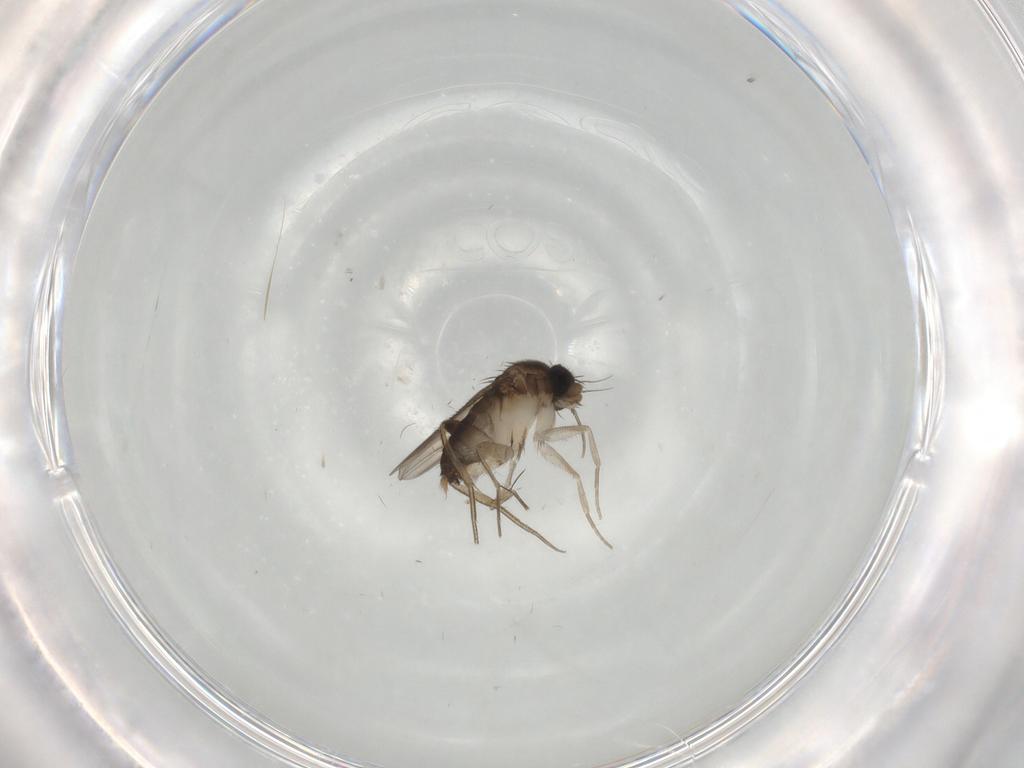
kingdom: Animalia
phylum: Arthropoda
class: Insecta
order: Diptera
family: Phoridae
